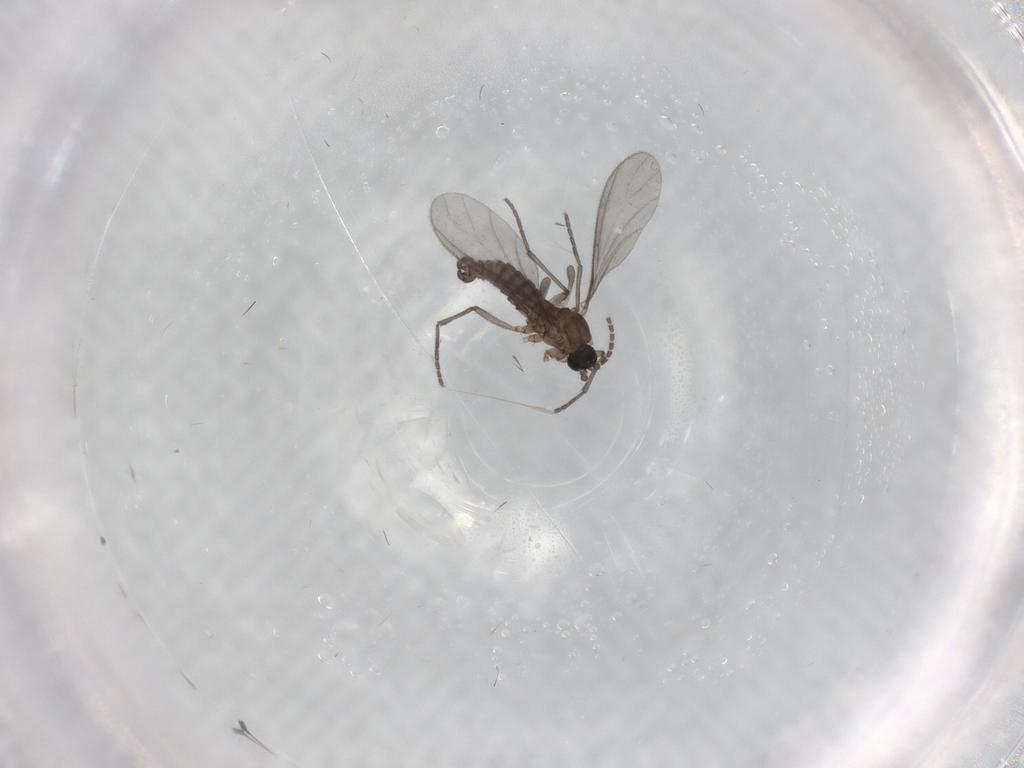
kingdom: Animalia
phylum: Arthropoda
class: Insecta
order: Diptera
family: Sciaridae
